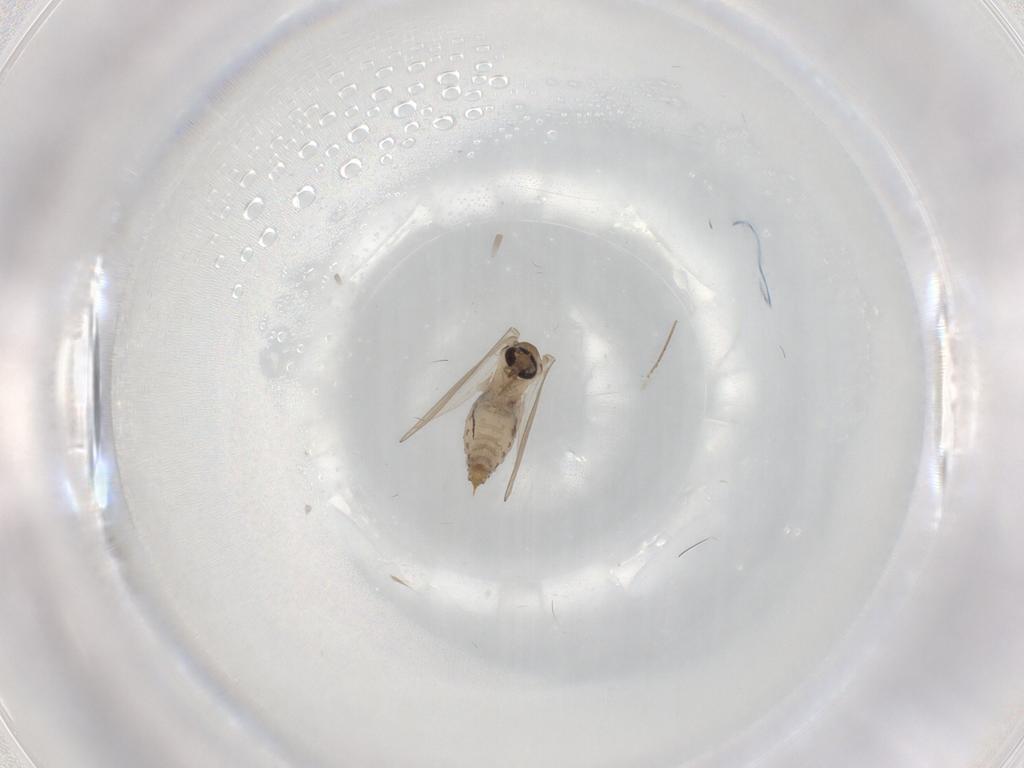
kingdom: Animalia
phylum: Arthropoda
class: Insecta
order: Diptera
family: Psychodidae
